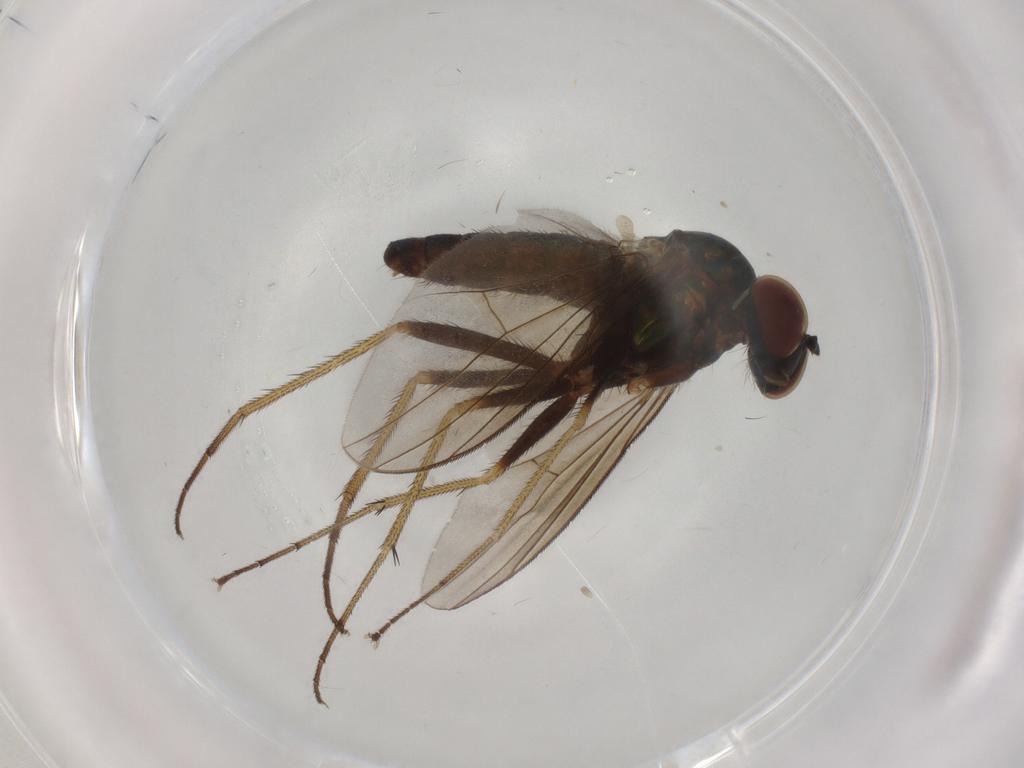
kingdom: Animalia
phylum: Arthropoda
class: Insecta
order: Diptera
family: Dolichopodidae
